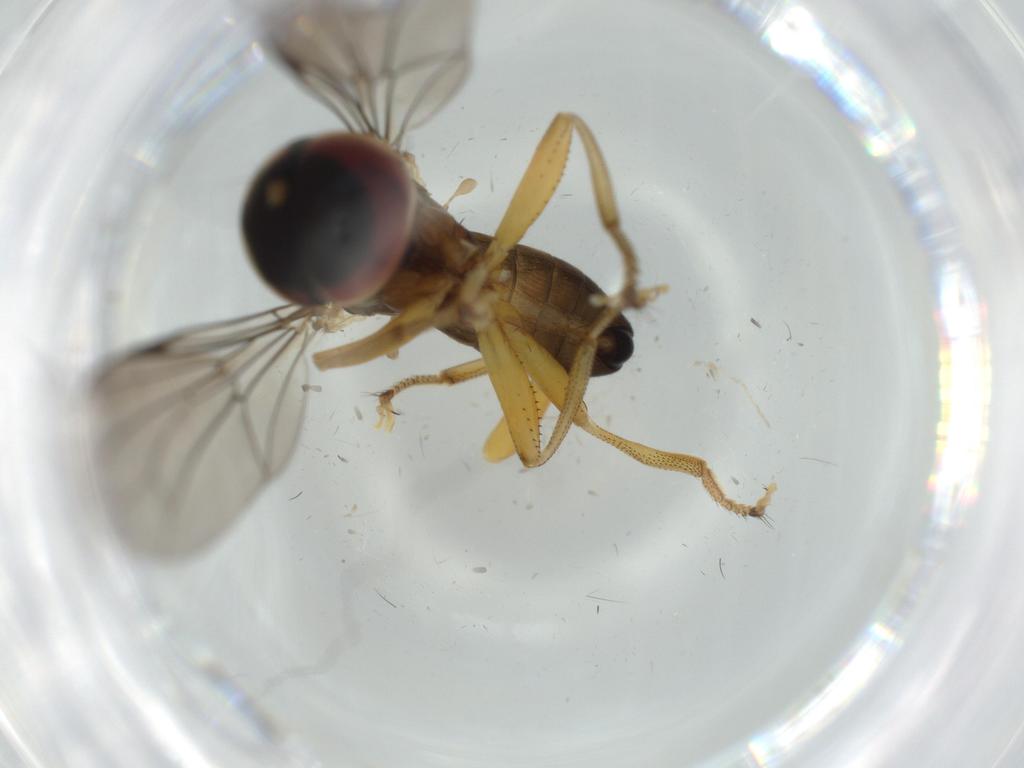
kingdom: Animalia
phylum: Arthropoda
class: Insecta
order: Diptera
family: Pipunculidae
